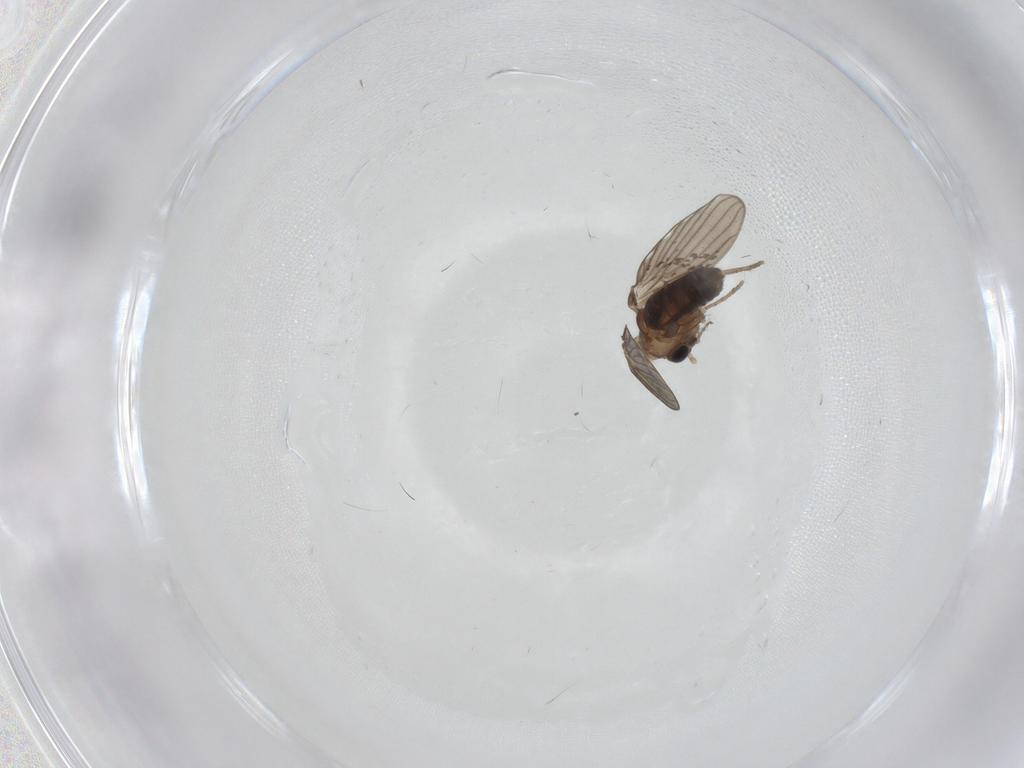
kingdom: Animalia
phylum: Arthropoda
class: Insecta
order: Diptera
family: Psychodidae
